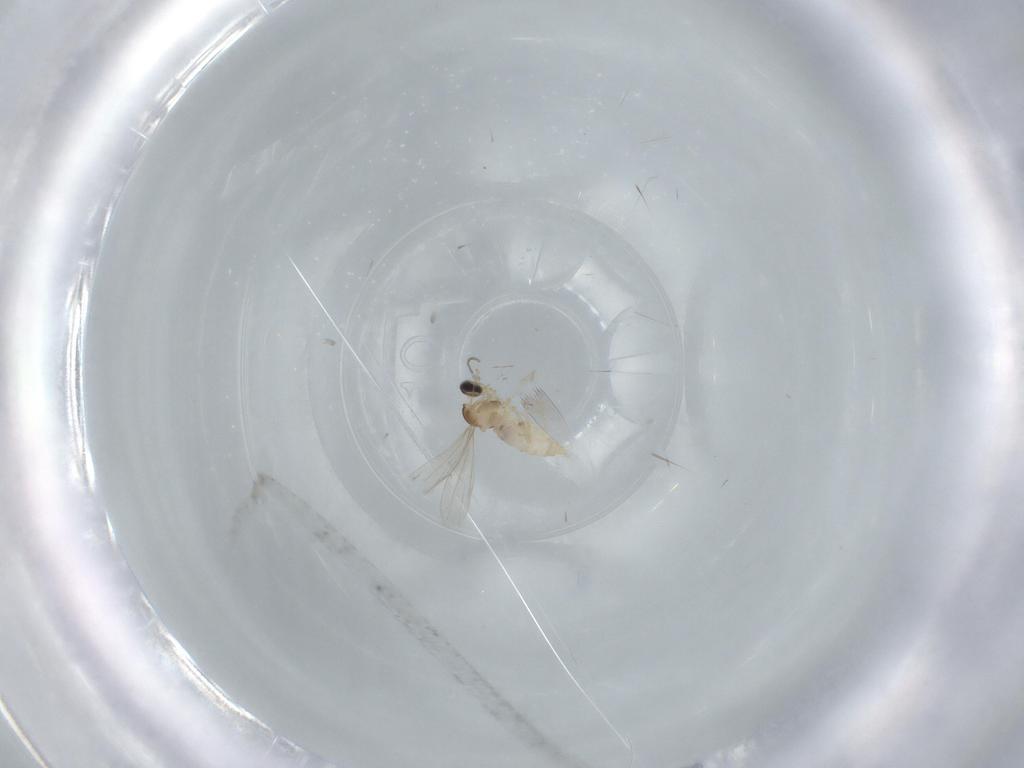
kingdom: Animalia
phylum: Arthropoda
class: Insecta
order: Diptera
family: Cecidomyiidae
